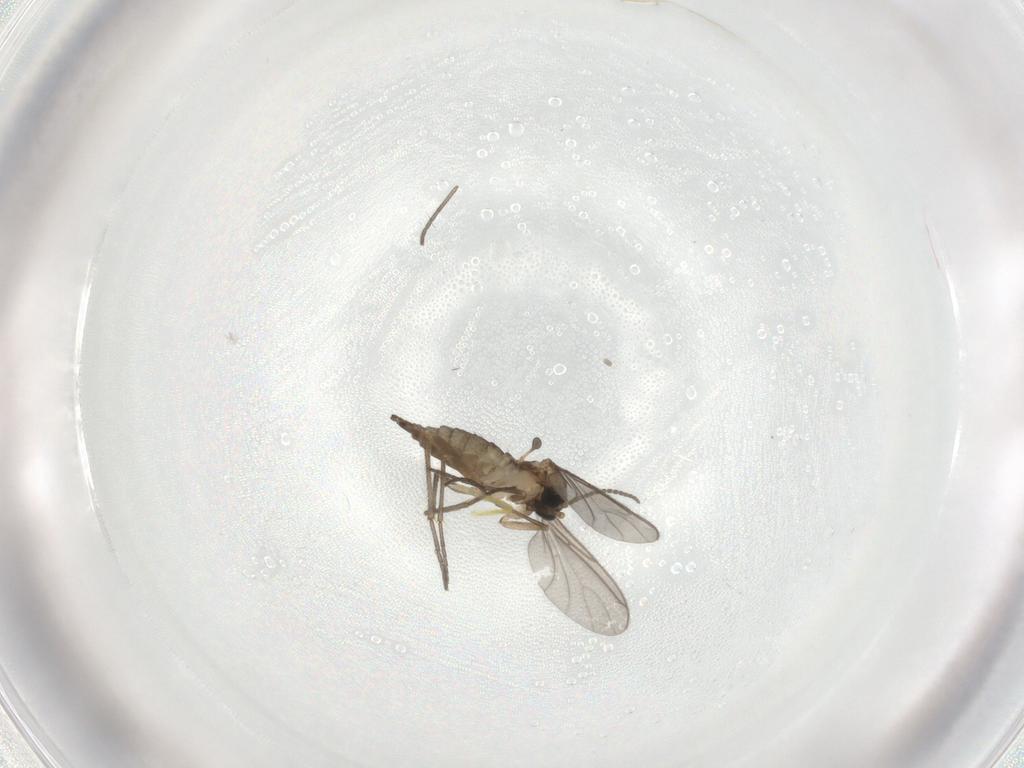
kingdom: Animalia
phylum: Arthropoda
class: Insecta
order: Diptera
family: Sciaridae
